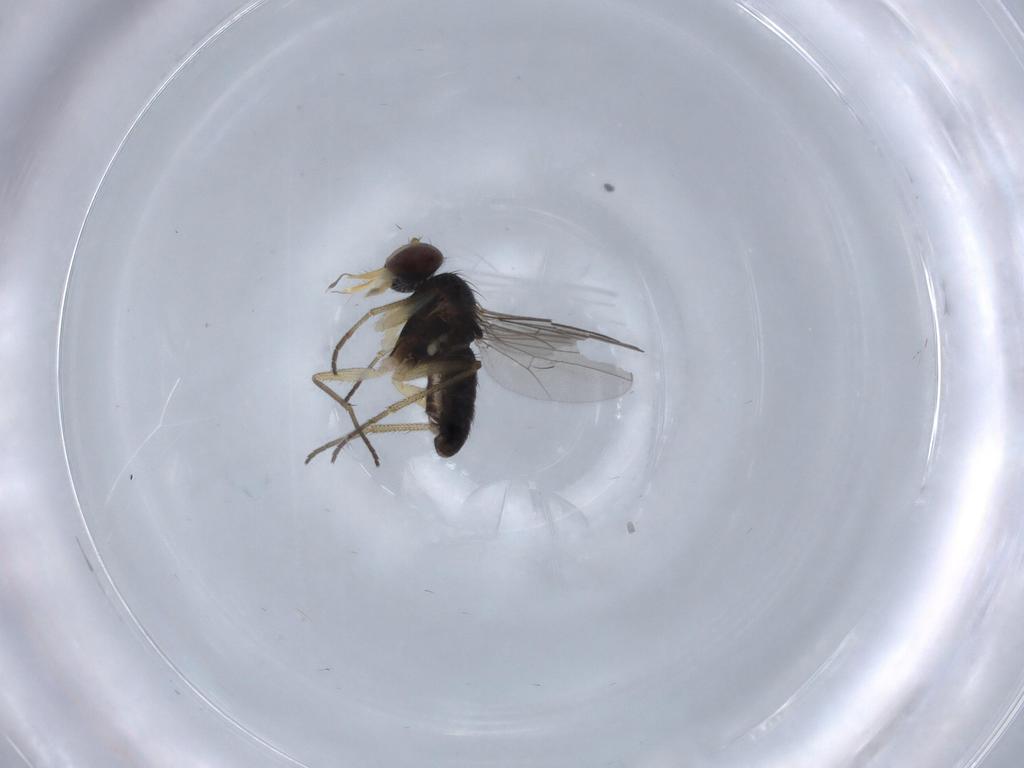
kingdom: Animalia
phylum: Arthropoda
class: Insecta
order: Diptera
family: Dolichopodidae
